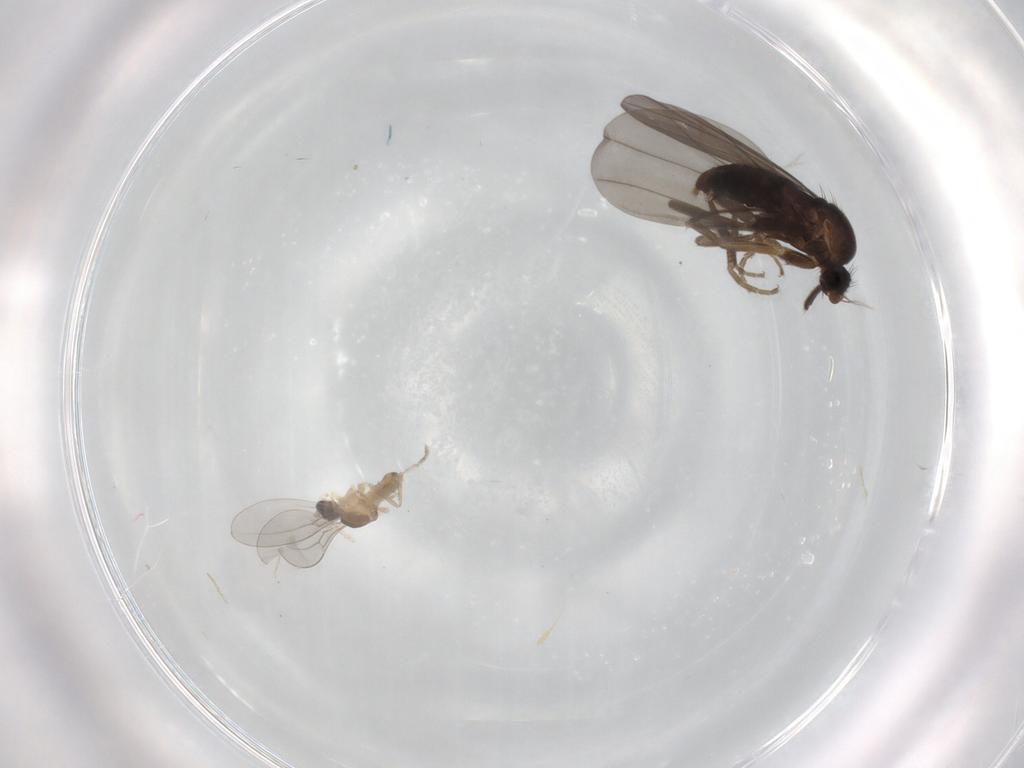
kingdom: Animalia
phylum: Arthropoda
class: Insecta
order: Diptera
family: Cecidomyiidae
